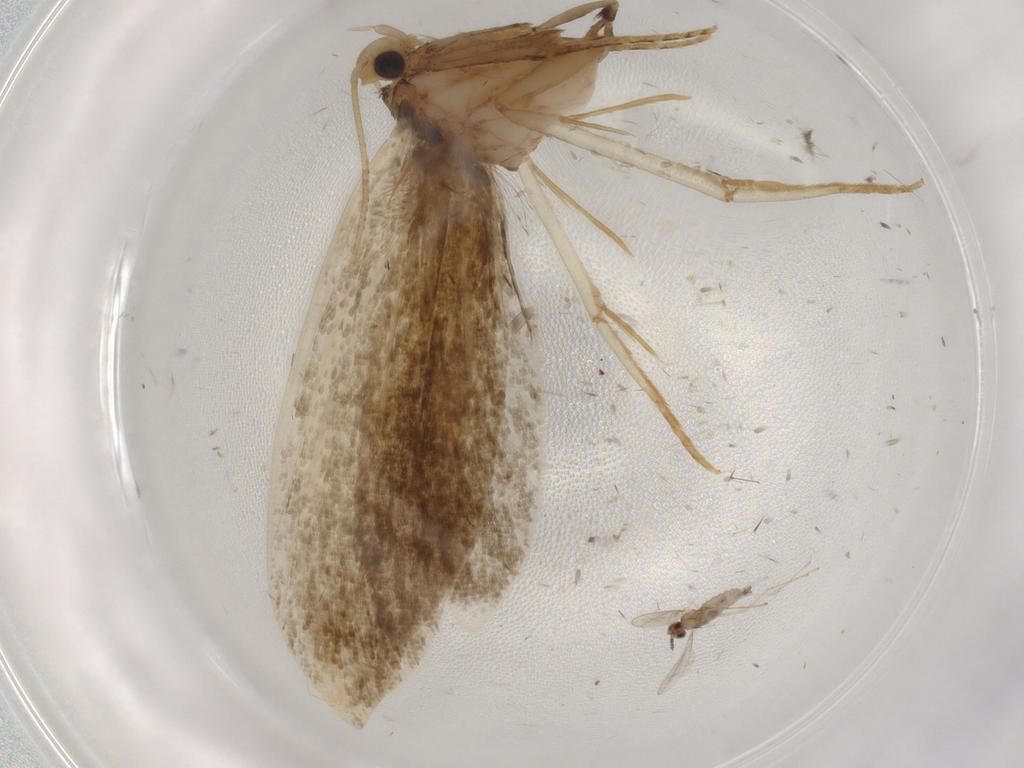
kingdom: Animalia
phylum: Arthropoda
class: Insecta
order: Lepidoptera
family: Pieridae
